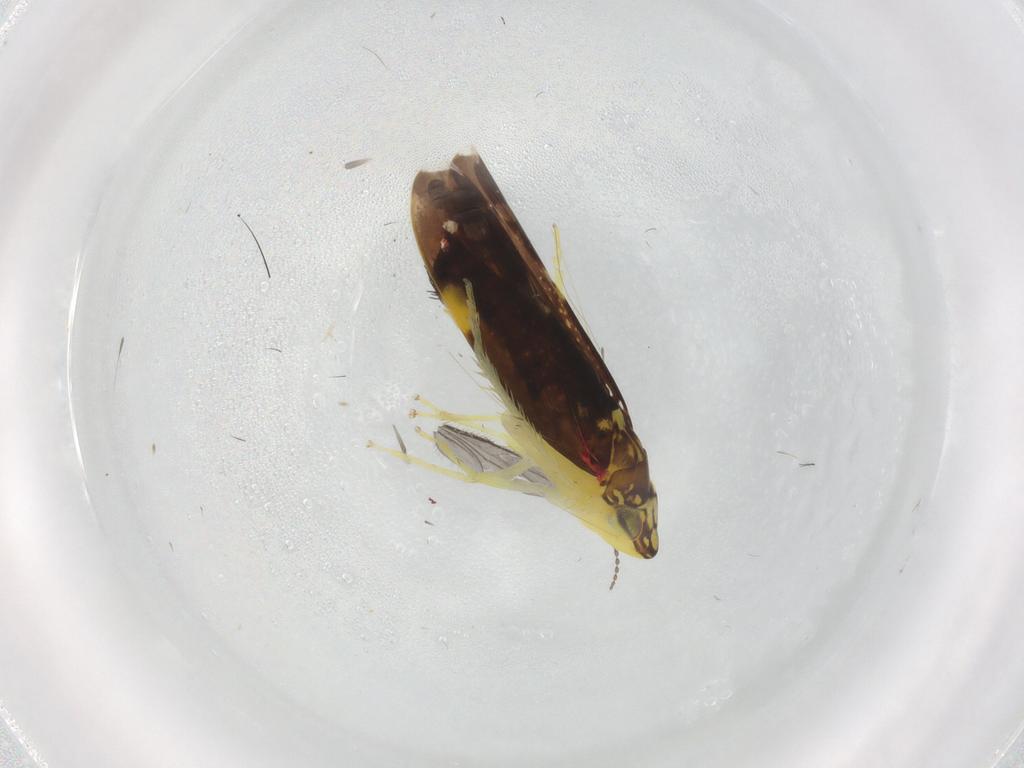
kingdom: Animalia
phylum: Arthropoda
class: Insecta
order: Hemiptera
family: Cicadellidae
